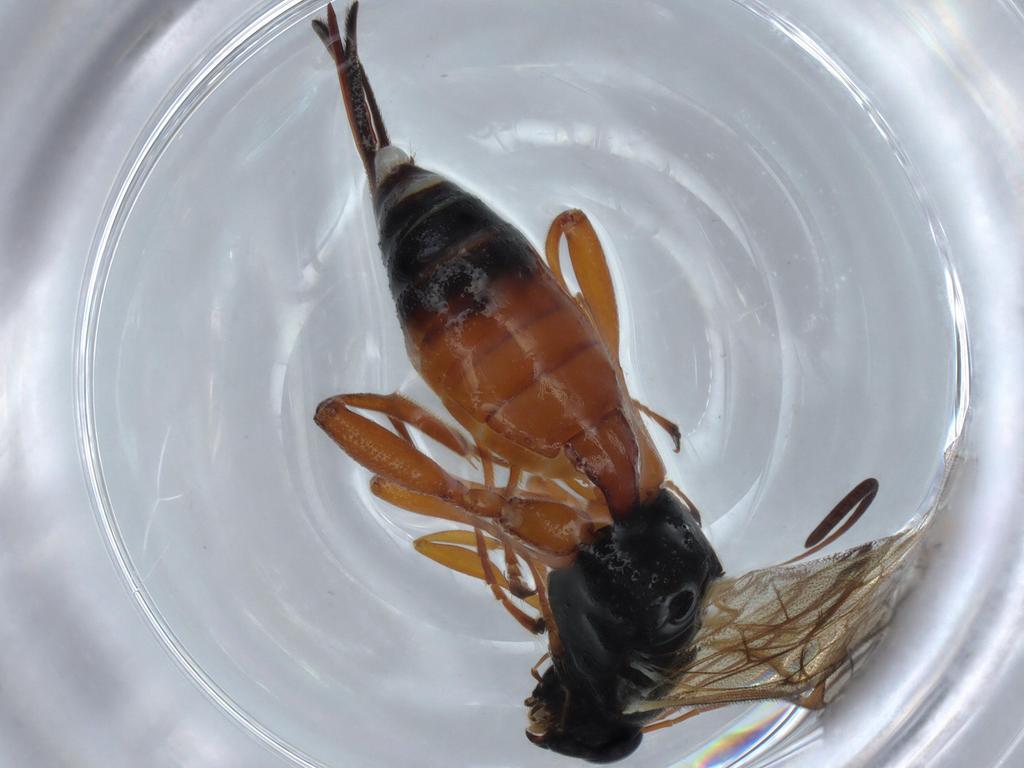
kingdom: Animalia
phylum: Arthropoda
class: Insecta
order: Hymenoptera
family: Ichneumonidae
